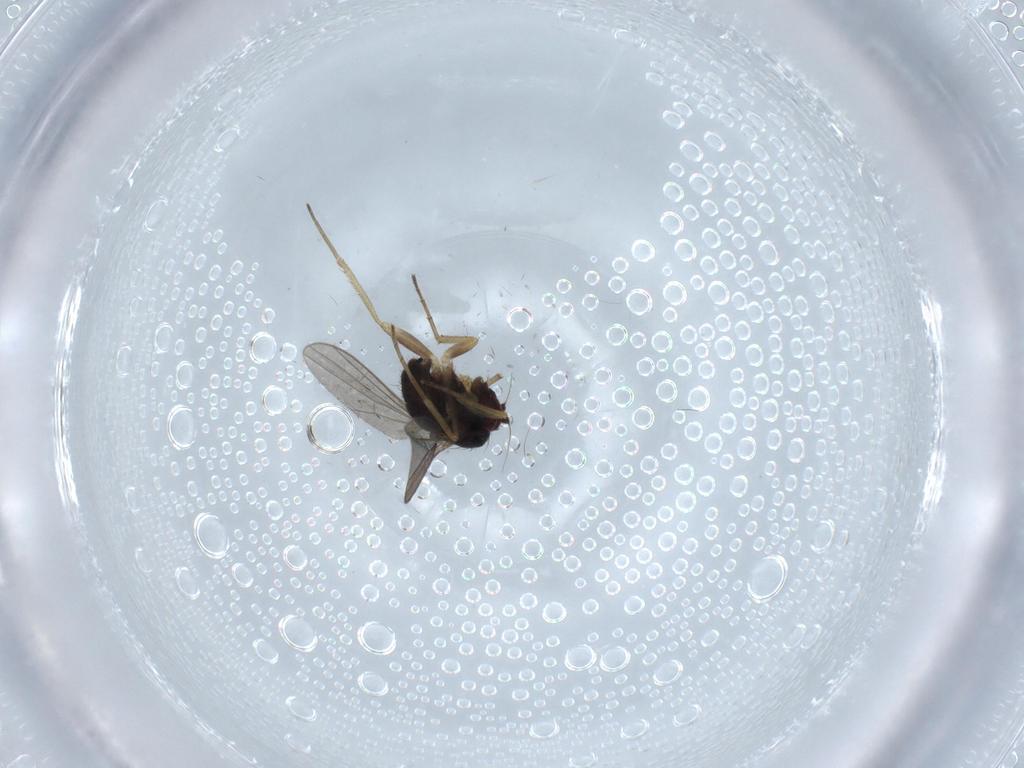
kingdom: Animalia
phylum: Arthropoda
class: Insecta
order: Diptera
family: Dolichopodidae
